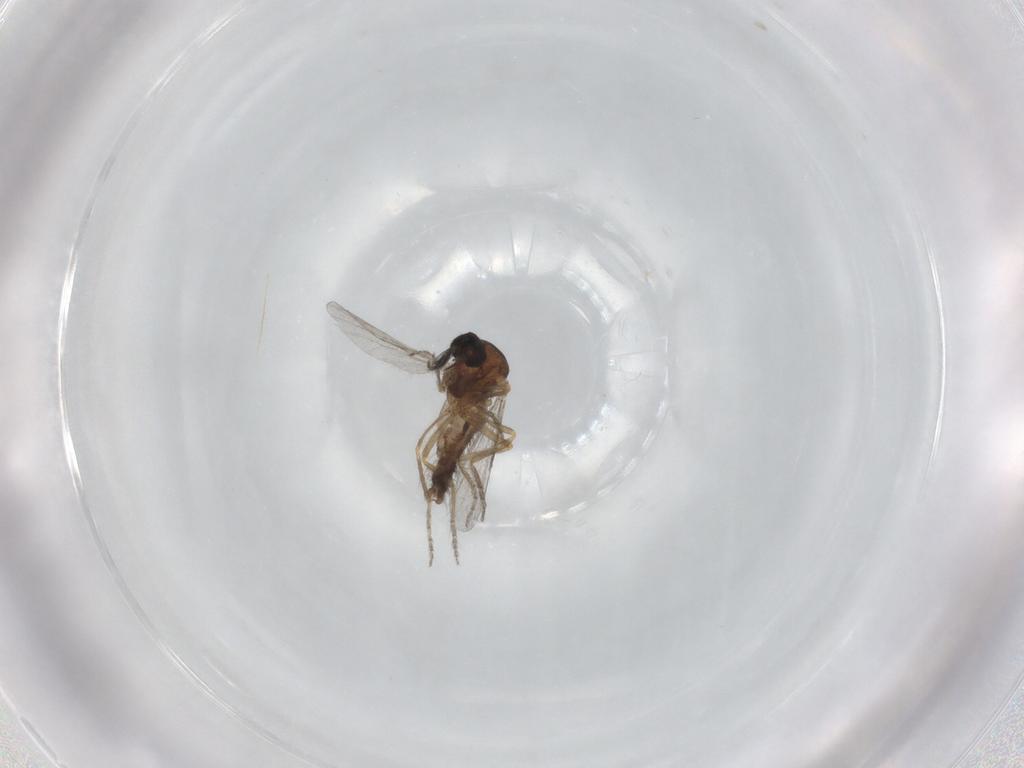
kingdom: Animalia
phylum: Arthropoda
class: Insecta
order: Diptera
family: Ceratopogonidae
